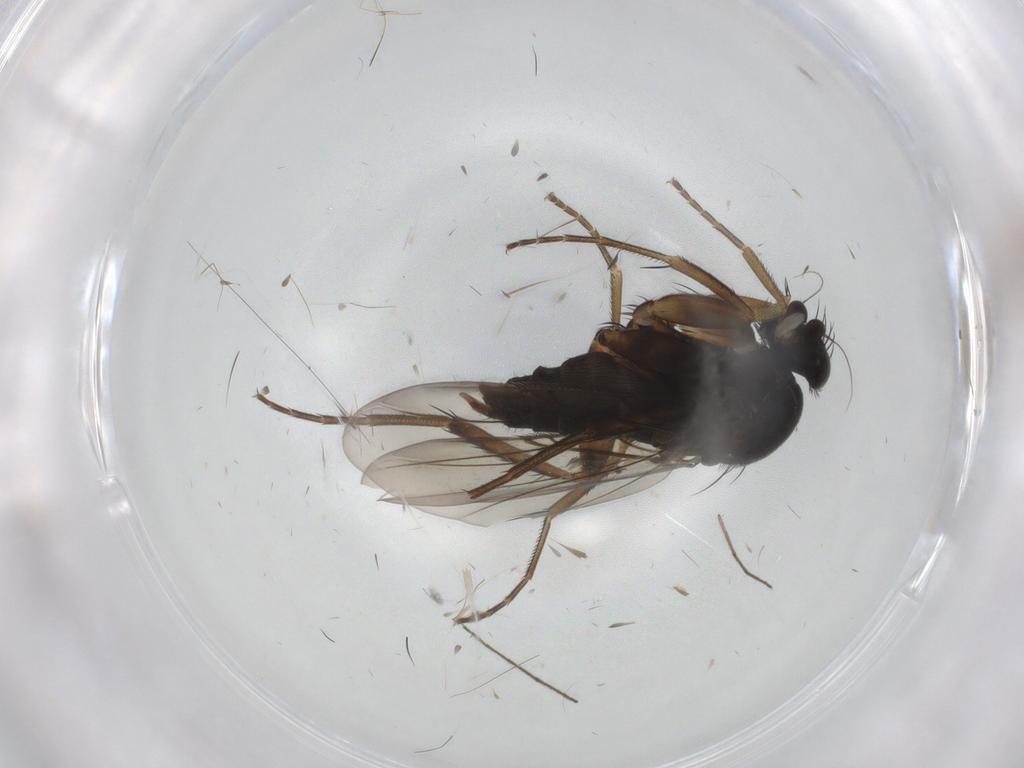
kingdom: Animalia
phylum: Arthropoda
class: Insecta
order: Diptera
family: Phoridae
